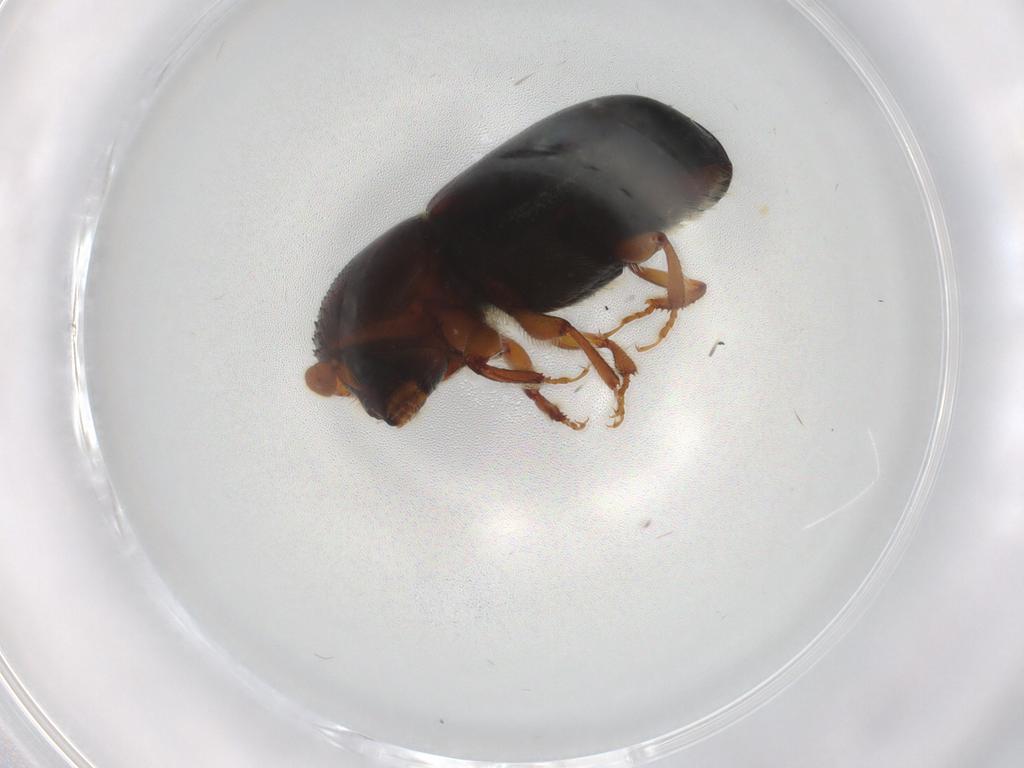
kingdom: Animalia
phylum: Arthropoda
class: Insecta
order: Coleoptera
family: Curculionidae
